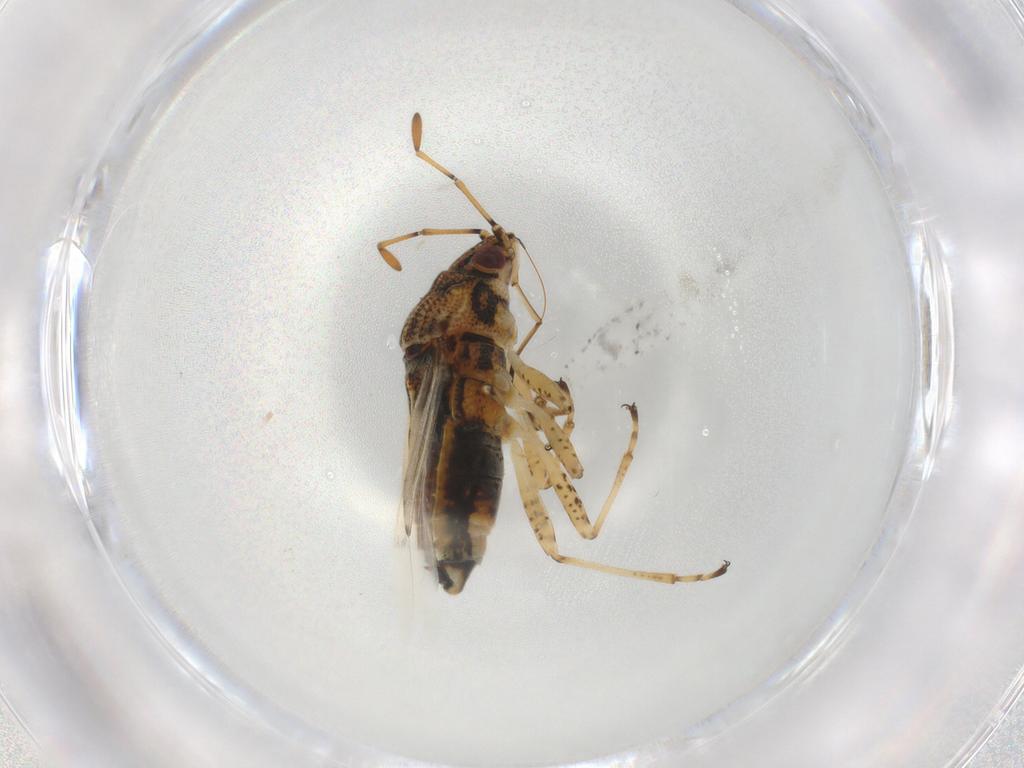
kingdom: Animalia
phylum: Arthropoda
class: Insecta
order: Hemiptera
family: Lygaeidae
